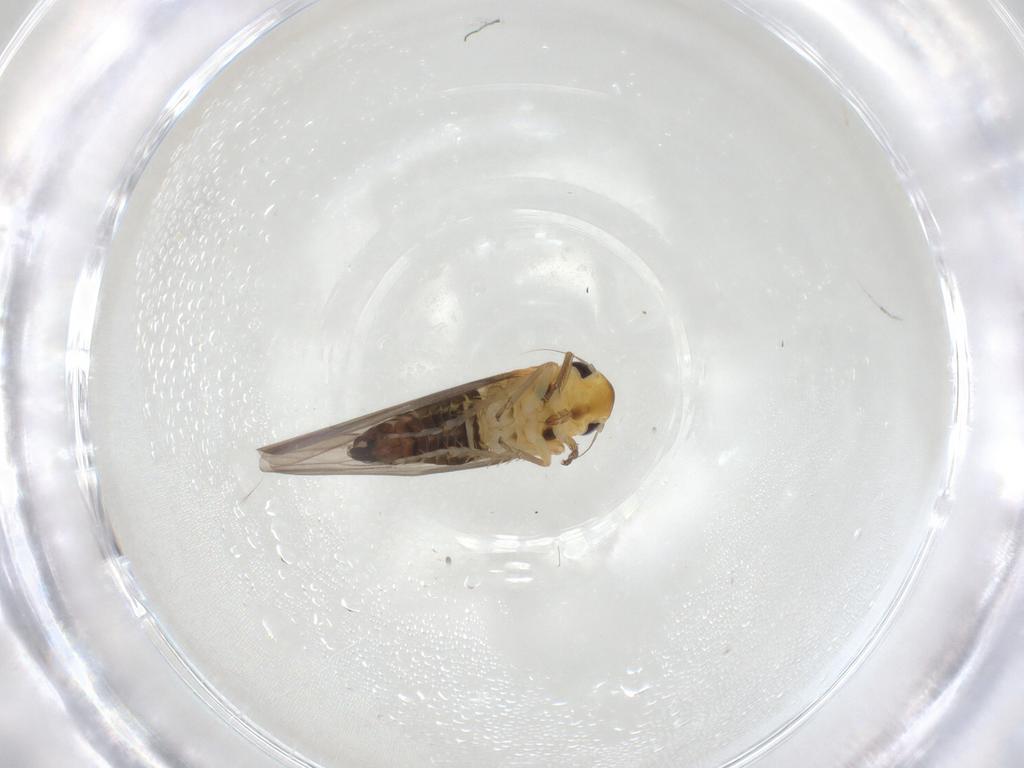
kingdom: Animalia
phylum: Arthropoda
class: Insecta
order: Hemiptera
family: Cicadellidae
